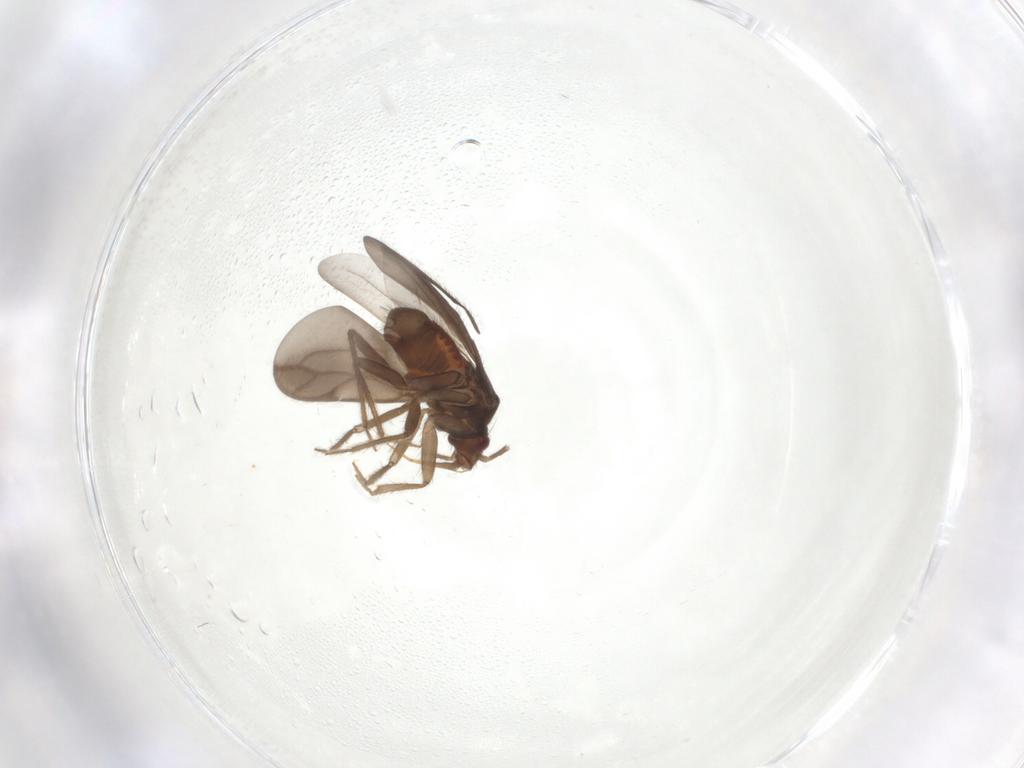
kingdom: Animalia
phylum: Arthropoda
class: Insecta
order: Hemiptera
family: Ceratocombidae
